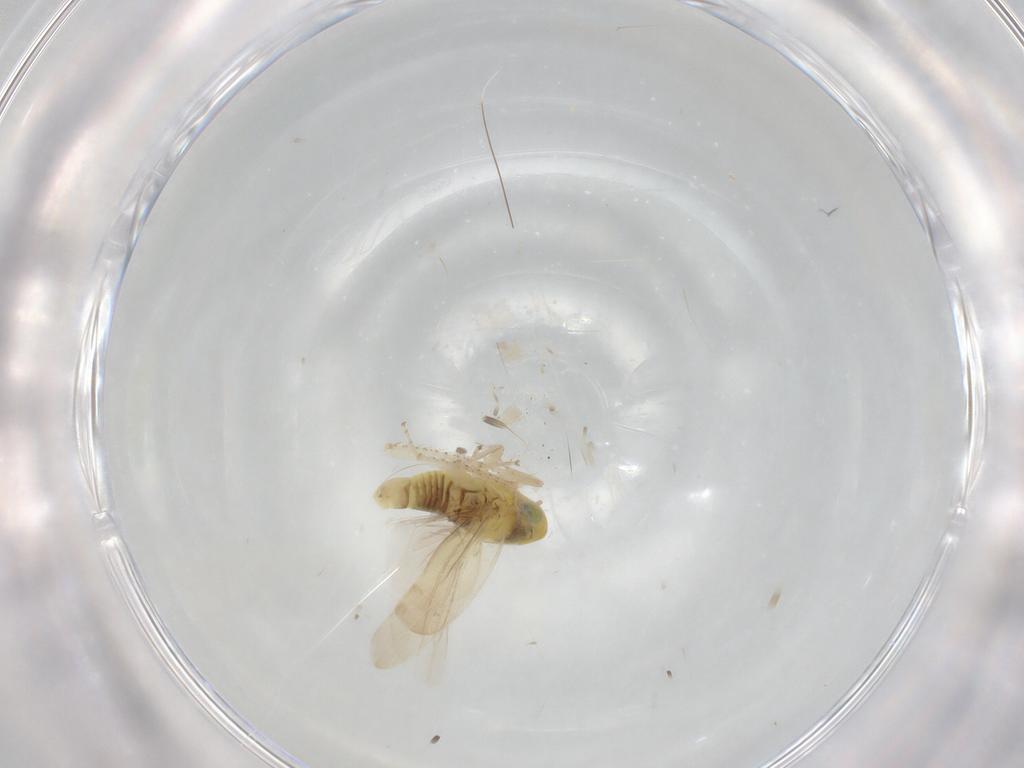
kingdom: Animalia
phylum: Arthropoda
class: Insecta
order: Hemiptera
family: Cicadellidae
